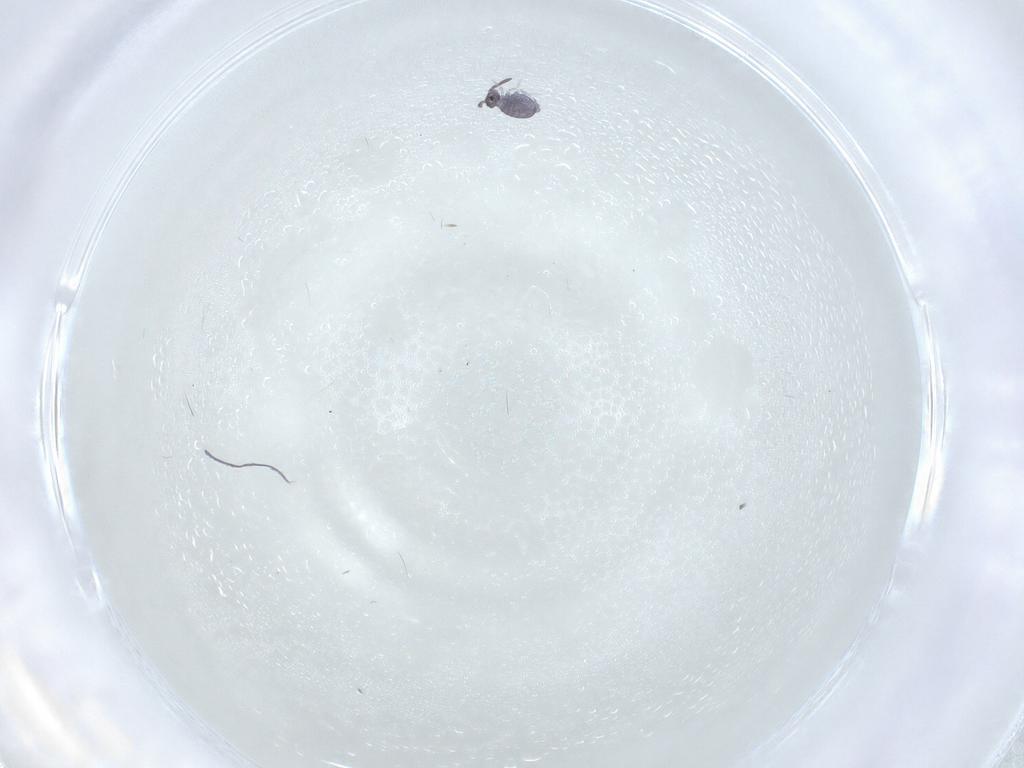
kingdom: Animalia
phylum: Arthropoda
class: Collembola
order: Symphypleona
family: Katiannidae
